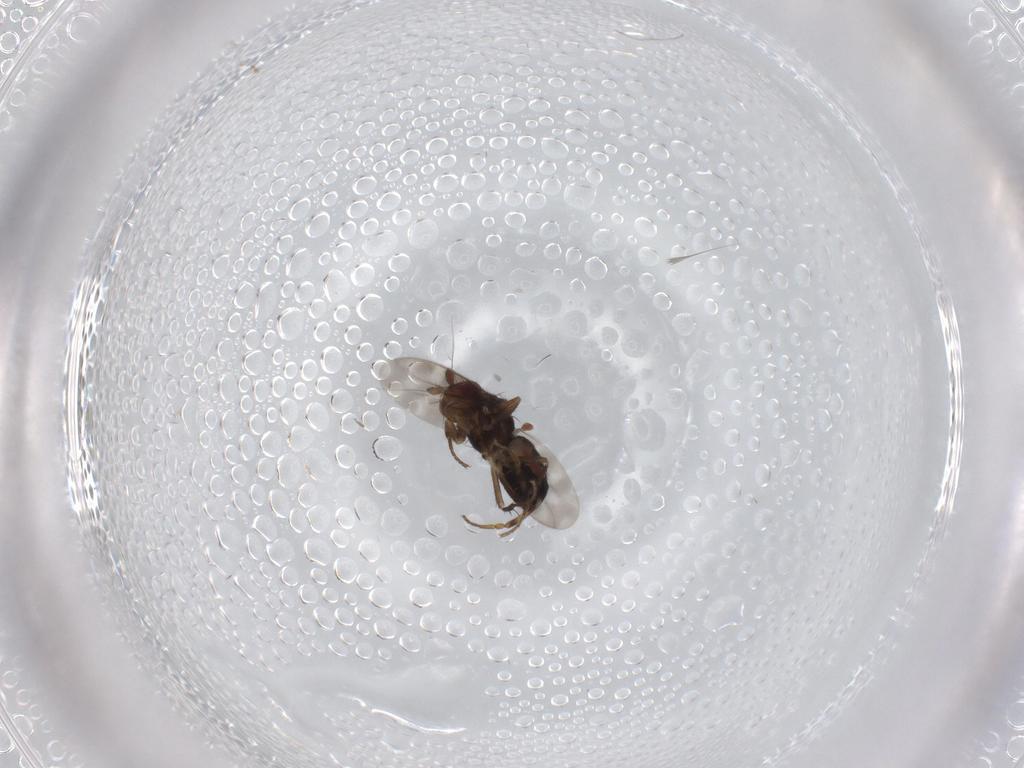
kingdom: Animalia
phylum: Arthropoda
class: Insecta
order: Diptera
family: Sphaeroceridae
